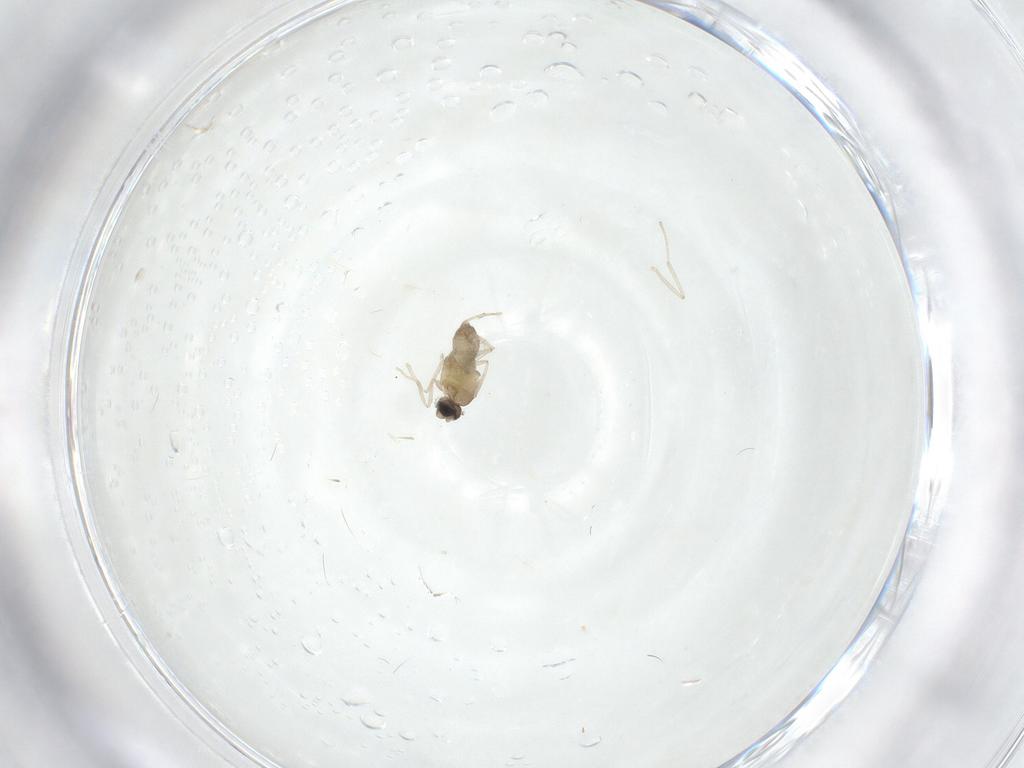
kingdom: Animalia
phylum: Arthropoda
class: Insecta
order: Diptera
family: Cecidomyiidae
